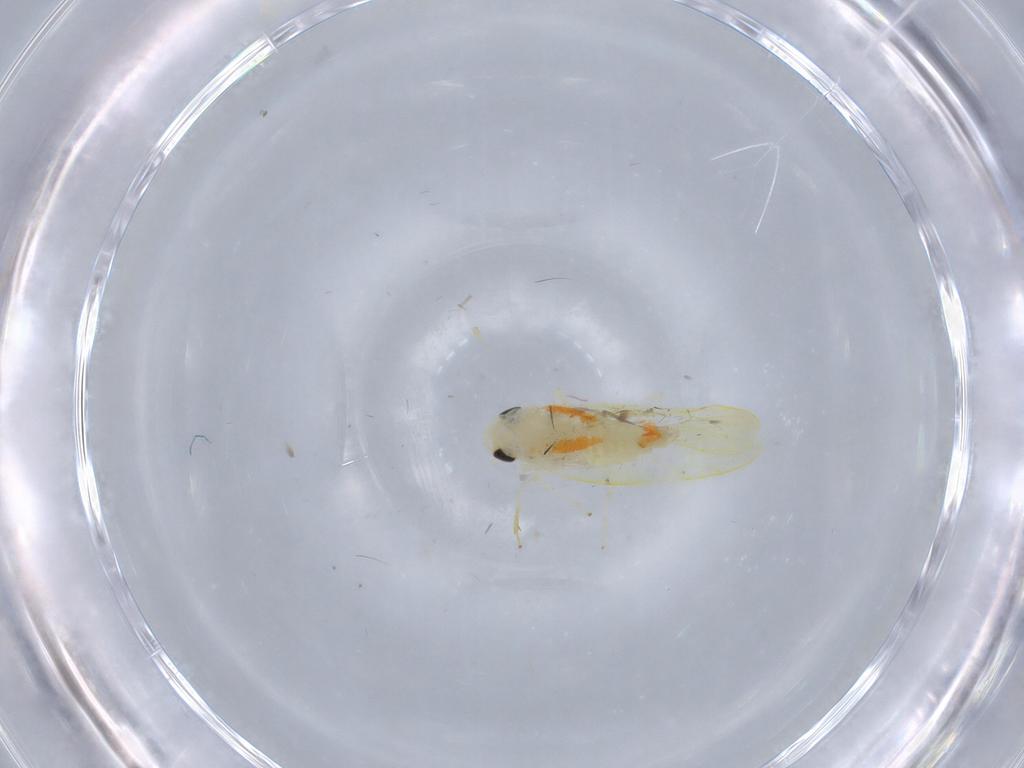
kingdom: Animalia
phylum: Arthropoda
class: Insecta
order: Hemiptera
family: Cicadellidae
